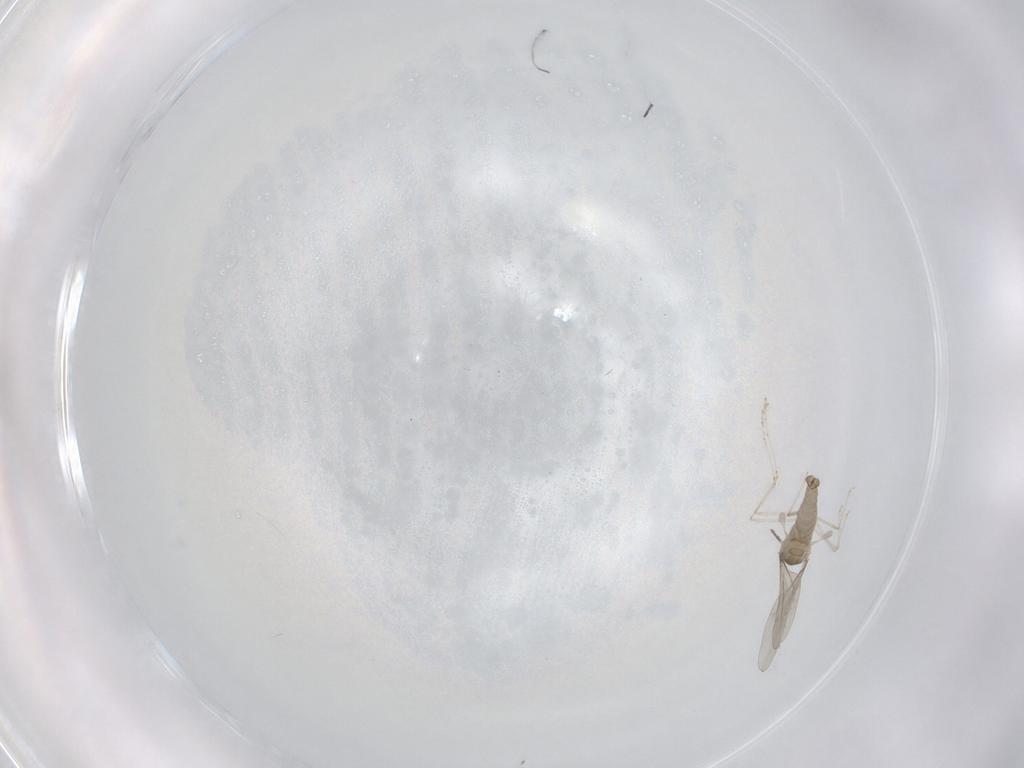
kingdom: Animalia
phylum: Arthropoda
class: Insecta
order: Diptera
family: Cecidomyiidae
